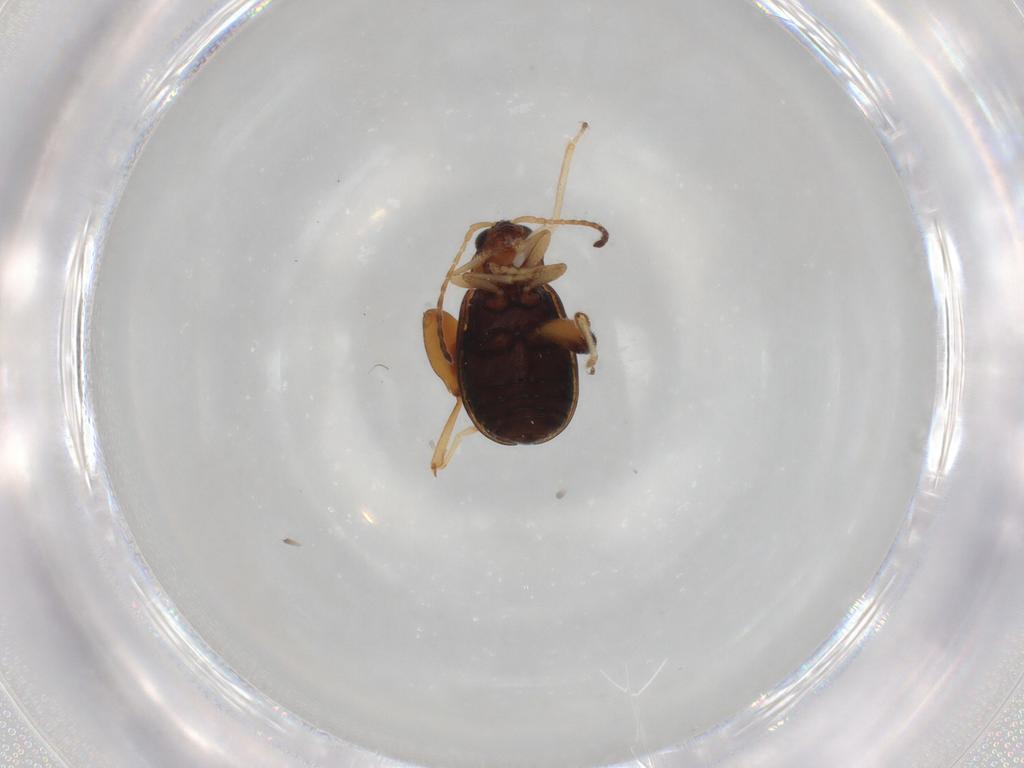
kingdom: Animalia
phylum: Arthropoda
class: Insecta
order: Coleoptera
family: Chrysomelidae
